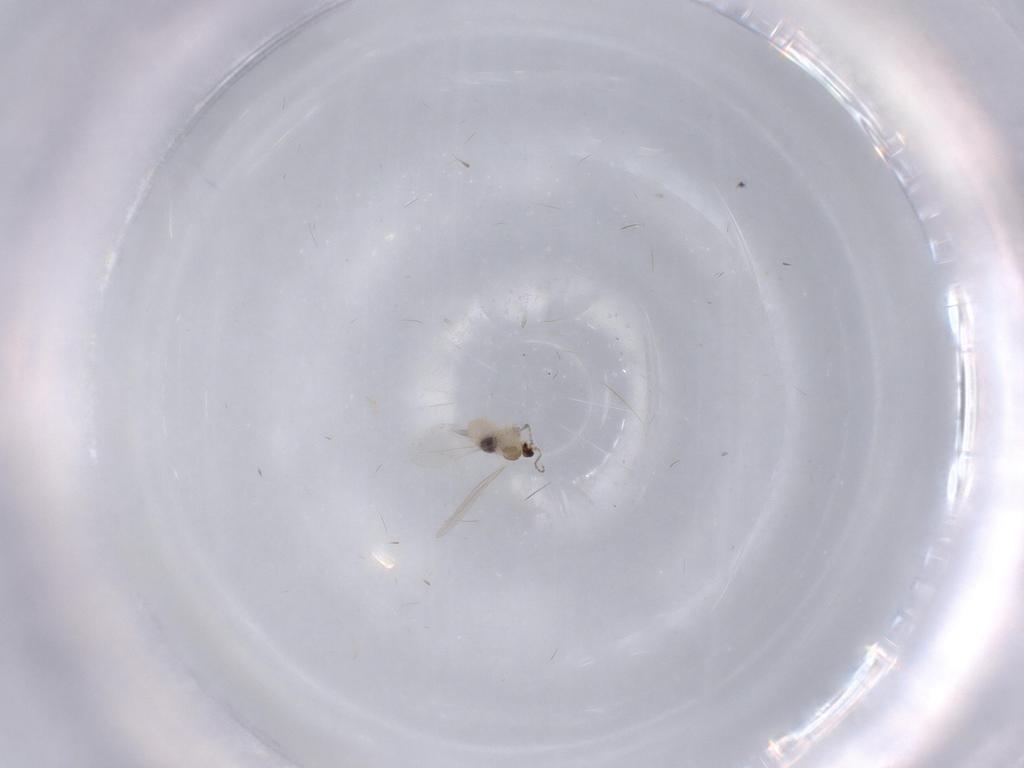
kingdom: Animalia
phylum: Arthropoda
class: Insecta
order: Diptera
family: Cecidomyiidae
